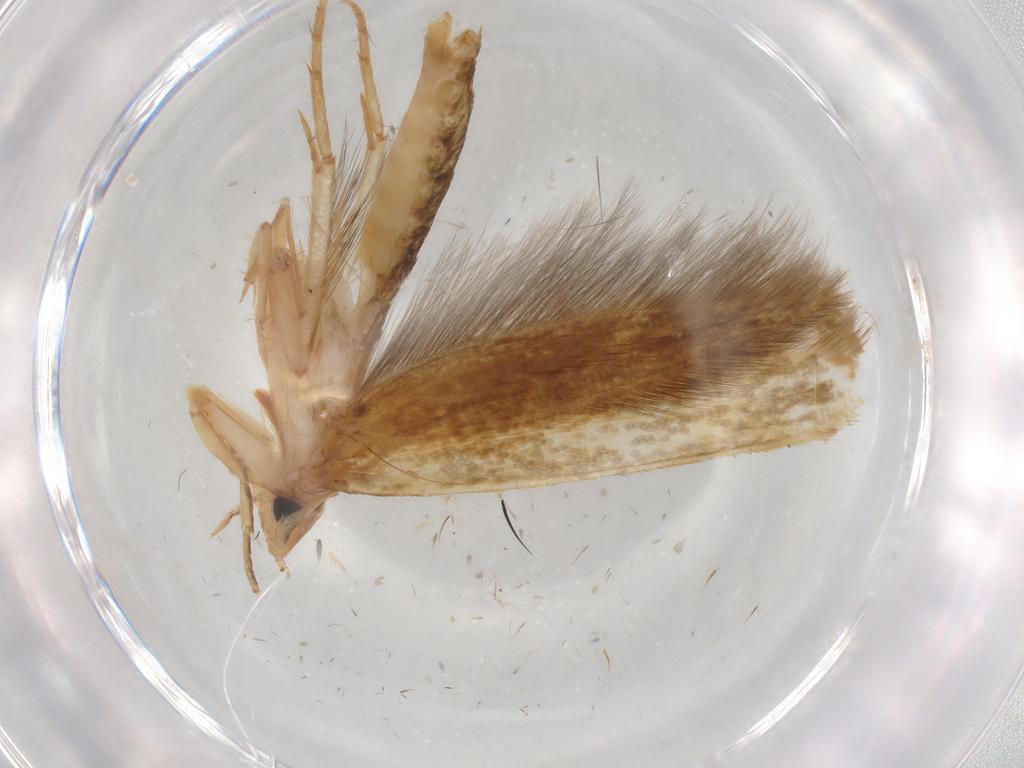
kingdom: Animalia
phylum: Arthropoda
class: Insecta
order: Lepidoptera
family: Tineidae
